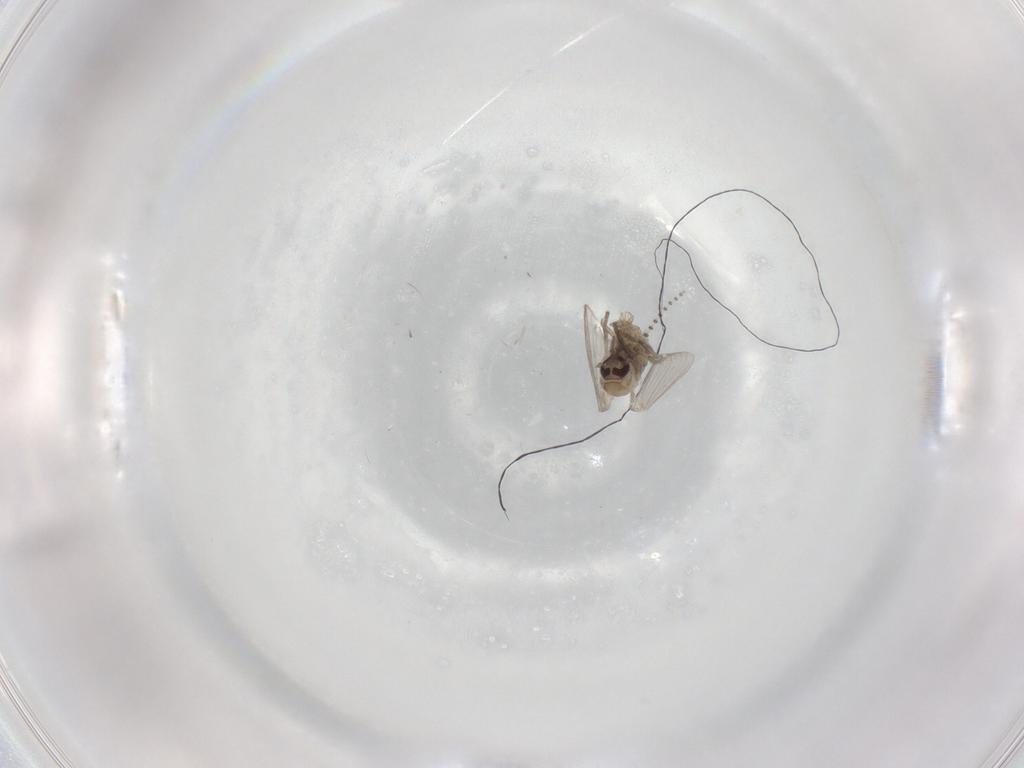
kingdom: Animalia
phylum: Arthropoda
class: Insecta
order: Diptera
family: Psychodidae
